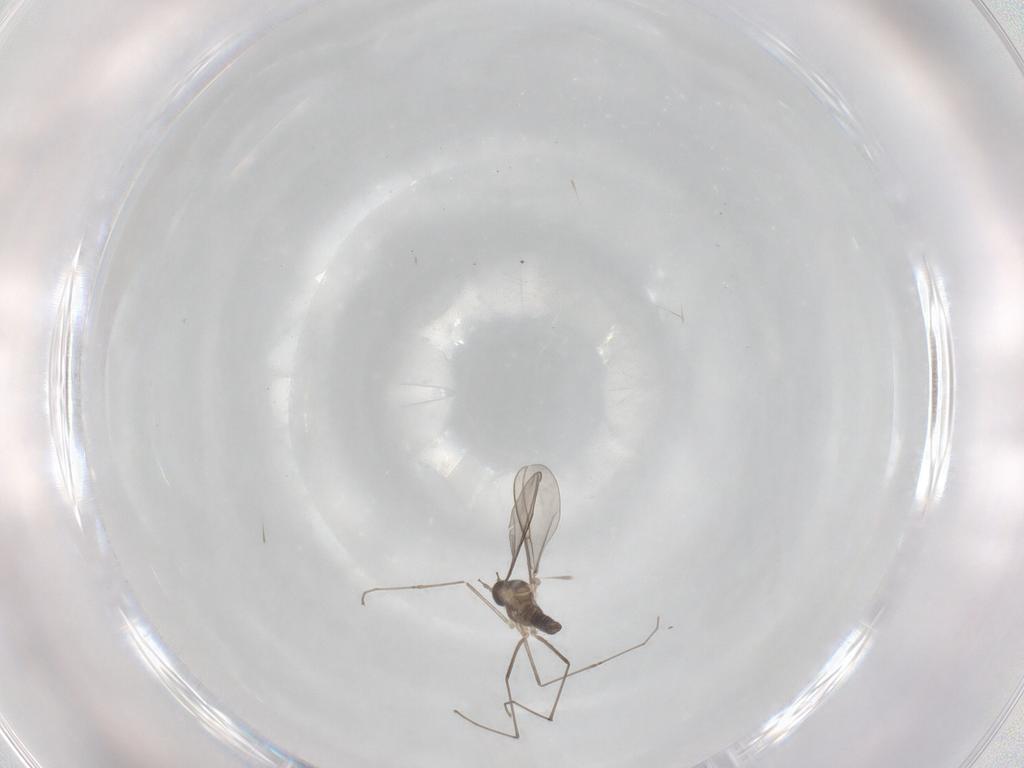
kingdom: Animalia
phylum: Arthropoda
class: Insecta
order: Diptera
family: Cecidomyiidae
